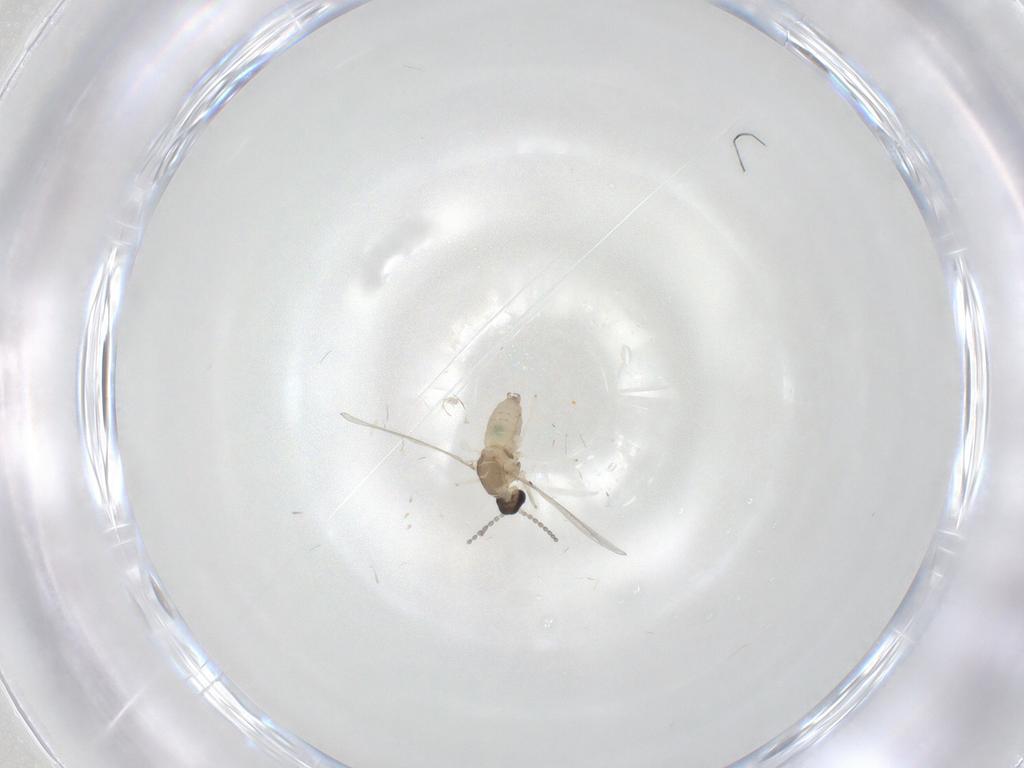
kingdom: Animalia
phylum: Arthropoda
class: Insecta
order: Diptera
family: Cecidomyiidae
